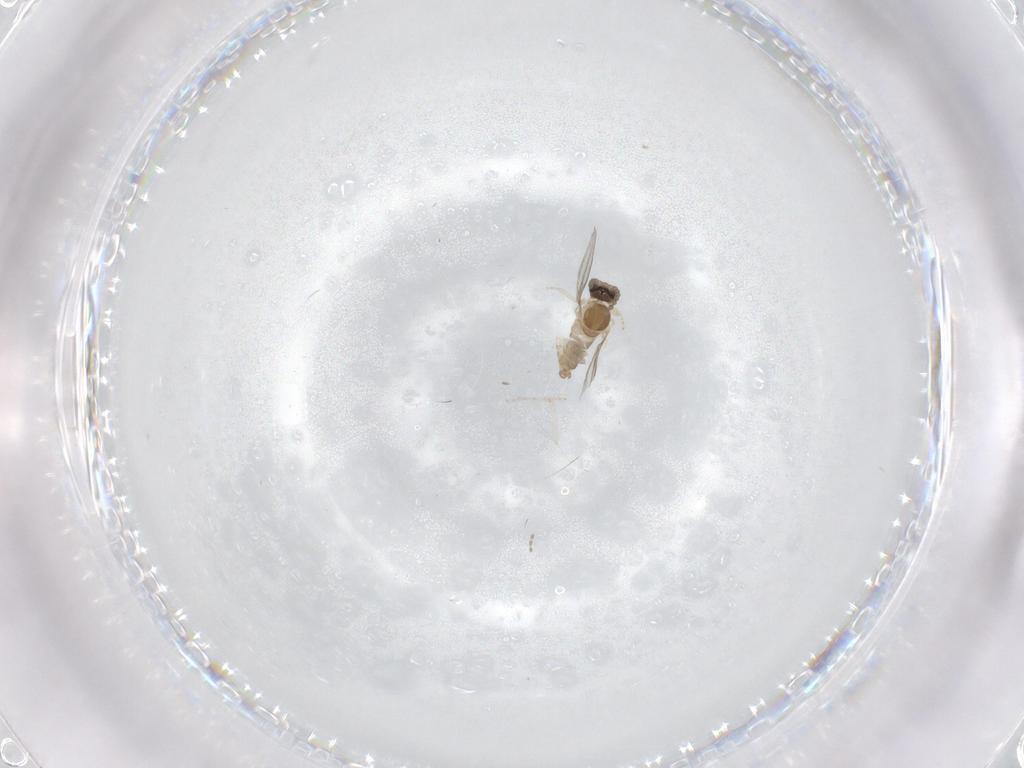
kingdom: Animalia
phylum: Arthropoda
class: Insecta
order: Diptera
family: Cecidomyiidae
